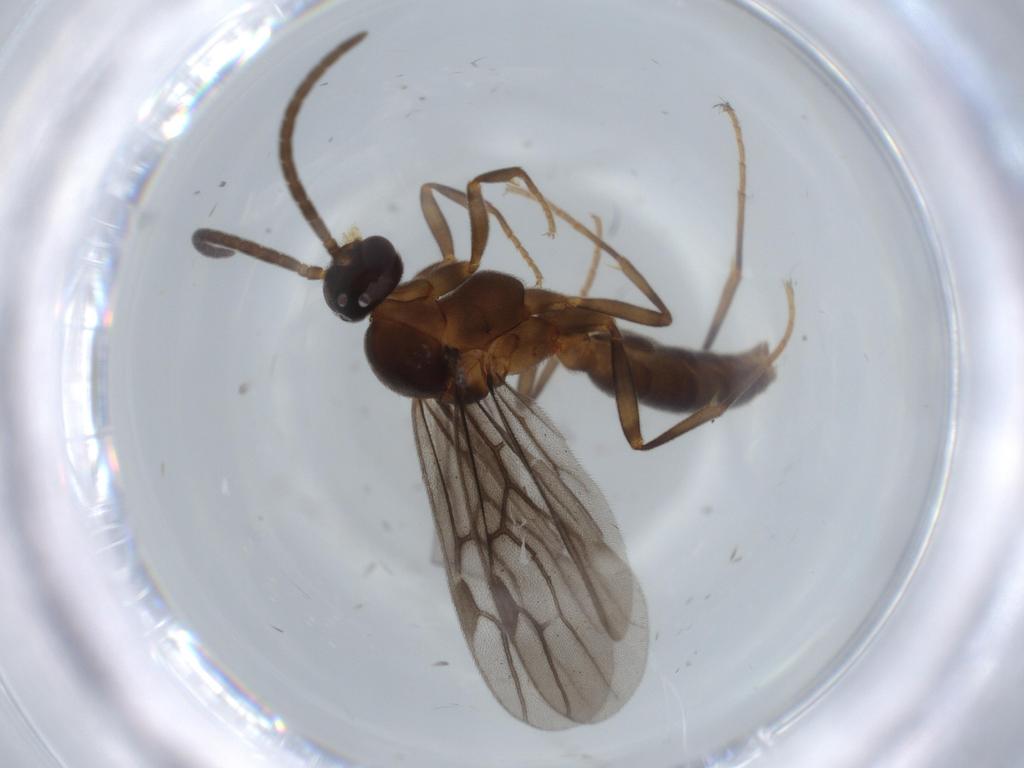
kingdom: Animalia
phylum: Arthropoda
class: Insecta
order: Hymenoptera
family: Formicidae
